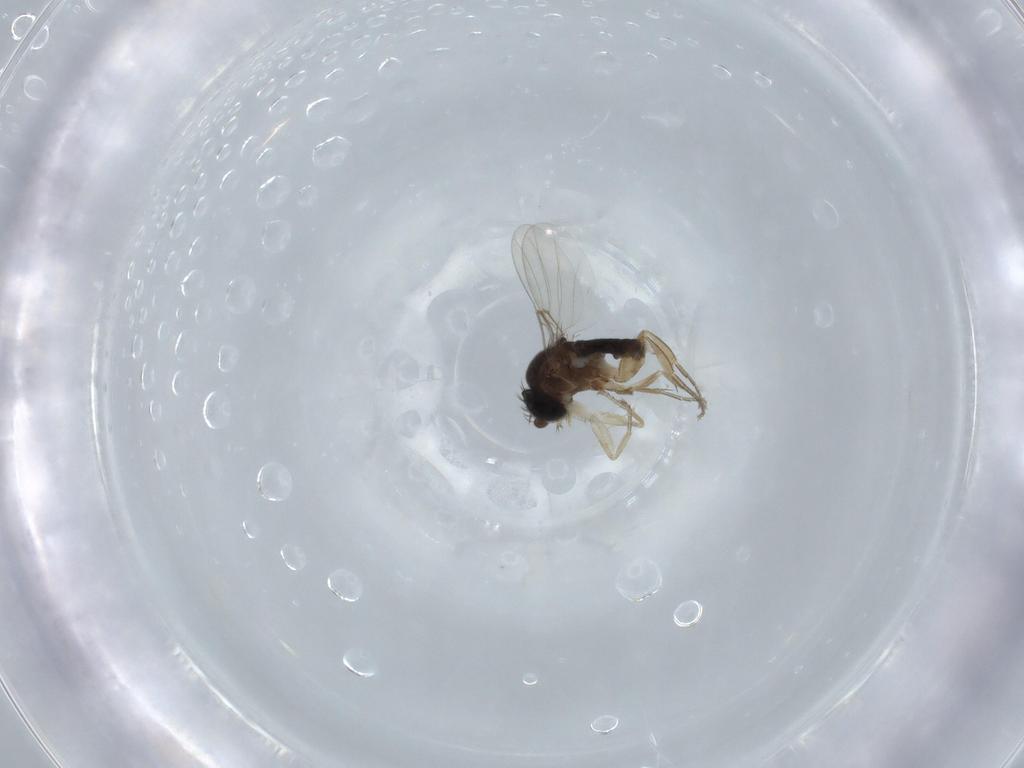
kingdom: Animalia
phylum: Arthropoda
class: Insecta
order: Diptera
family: Phoridae
